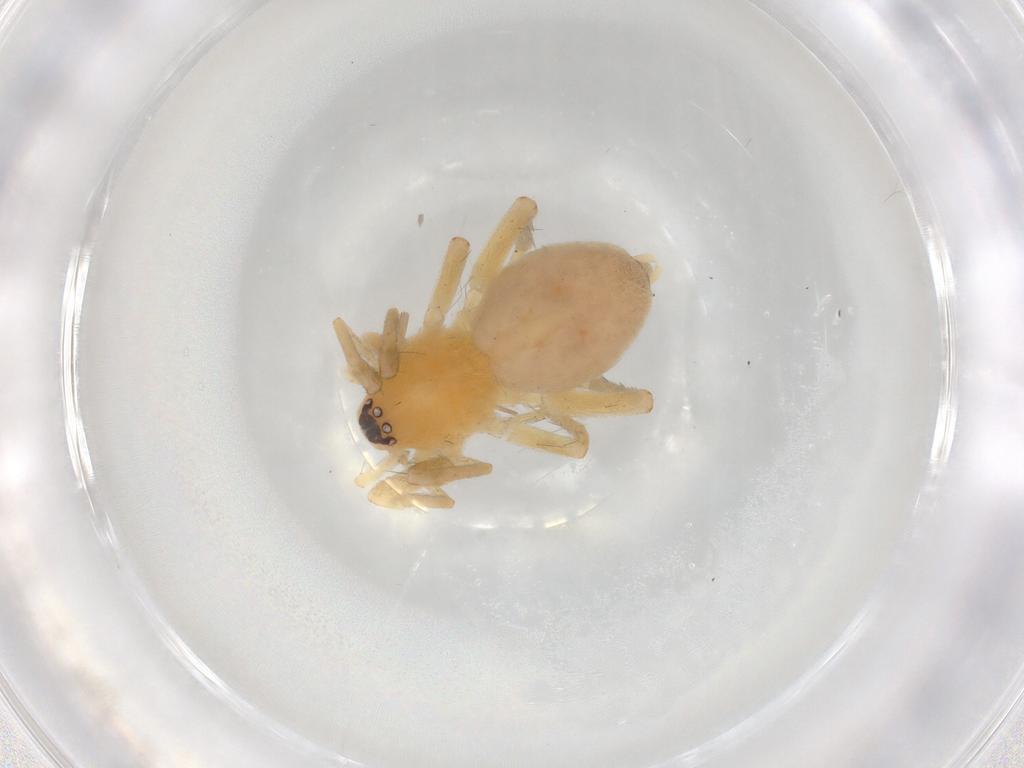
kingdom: Animalia
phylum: Arthropoda
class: Arachnida
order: Araneae
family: Gnaphosidae
